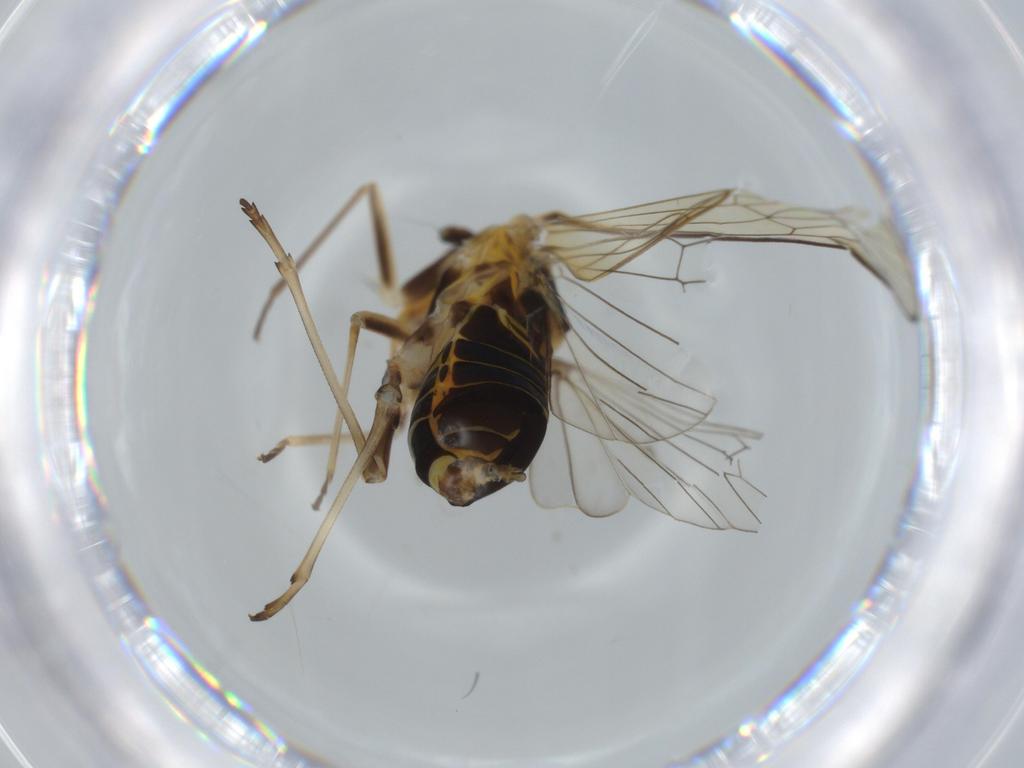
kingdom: Animalia
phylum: Arthropoda
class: Insecta
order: Hemiptera
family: Kinnaridae
